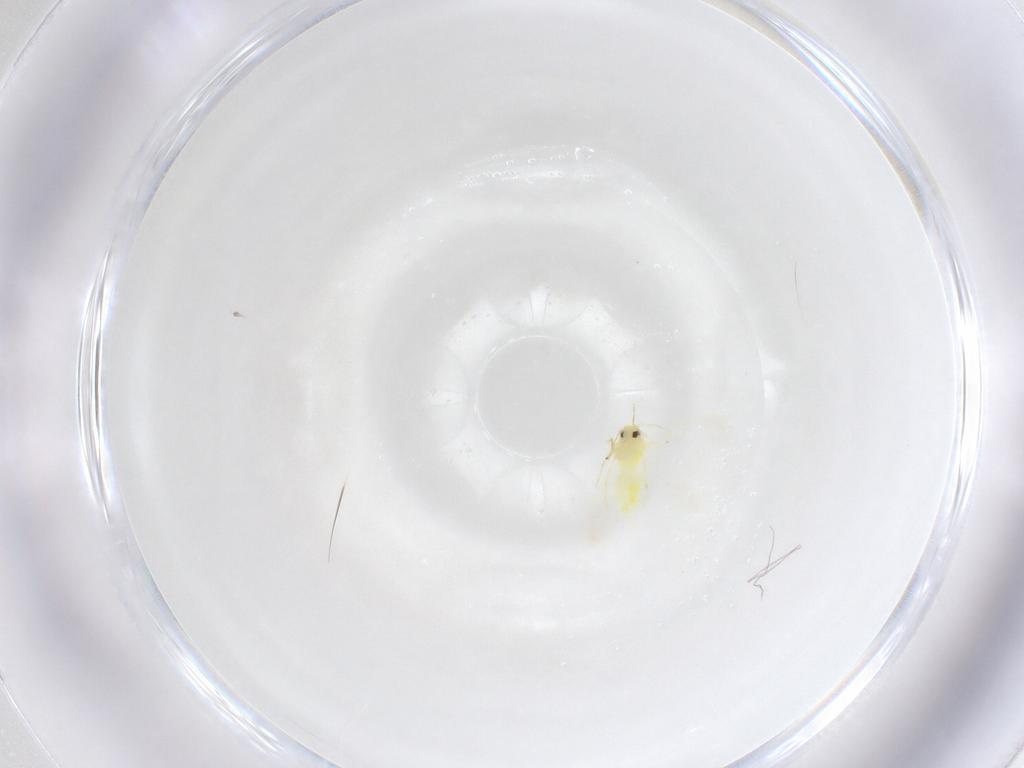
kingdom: Animalia
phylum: Arthropoda
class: Insecta
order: Hemiptera
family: Aleyrodidae
